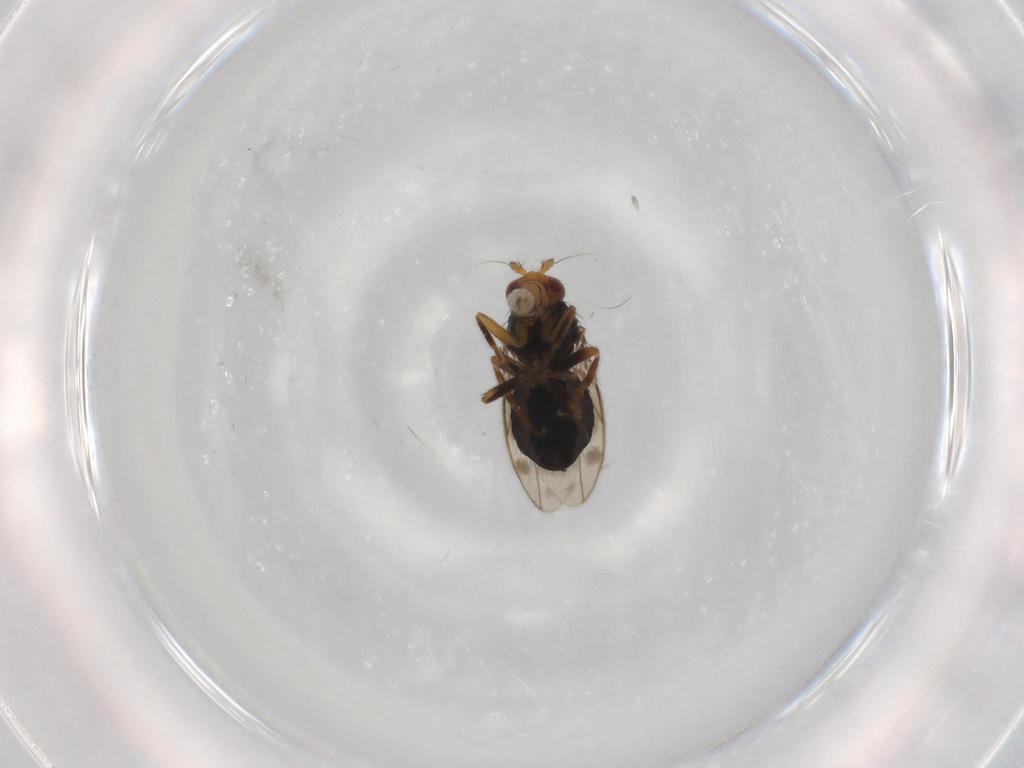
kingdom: Animalia
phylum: Arthropoda
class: Insecta
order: Diptera
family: Sphaeroceridae
